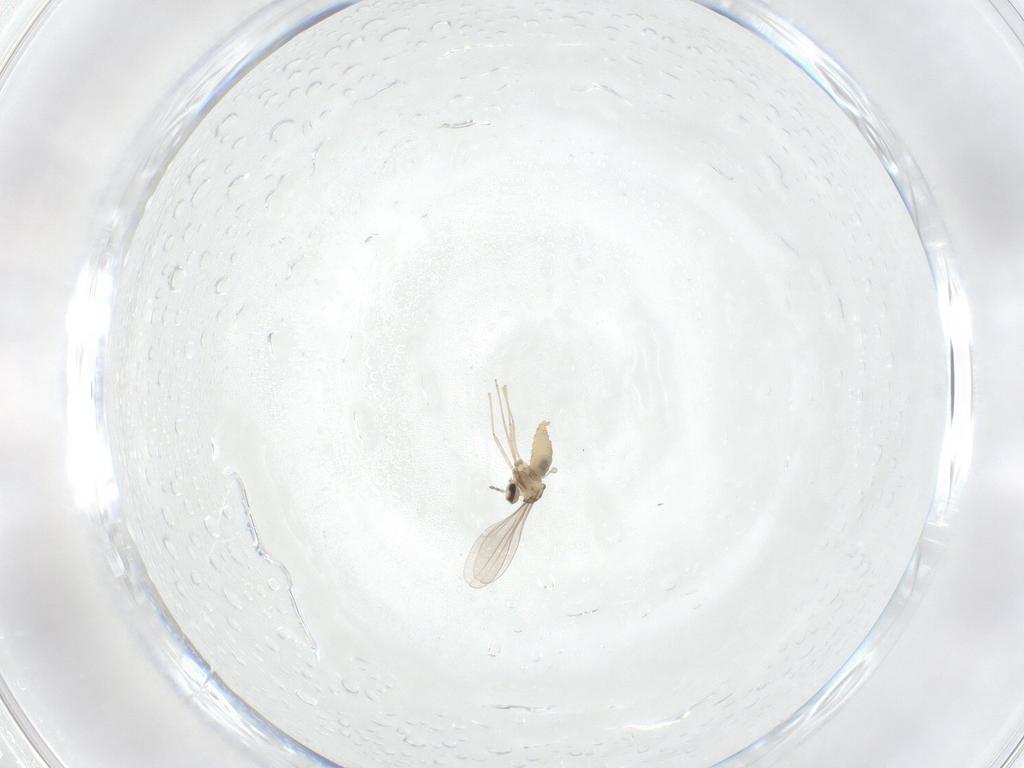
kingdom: Animalia
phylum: Arthropoda
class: Insecta
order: Diptera
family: Cecidomyiidae
